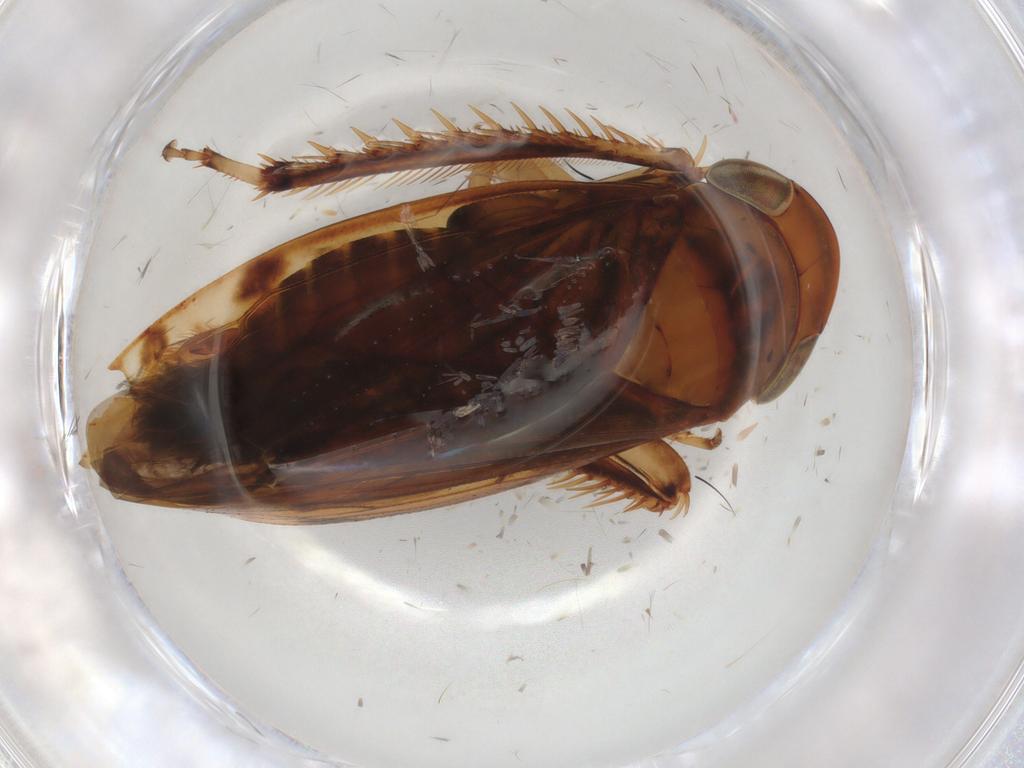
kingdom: Animalia
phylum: Arthropoda
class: Insecta
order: Hemiptera
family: Cicadellidae
